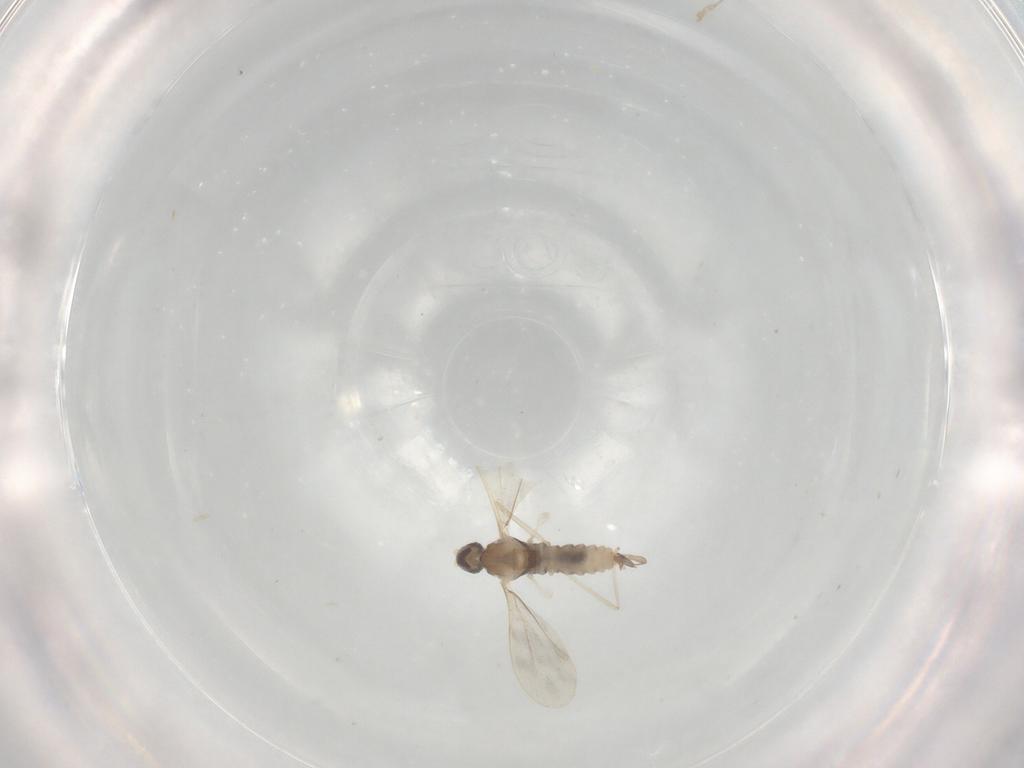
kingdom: Animalia
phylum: Arthropoda
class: Insecta
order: Diptera
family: Cecidomyiidae
